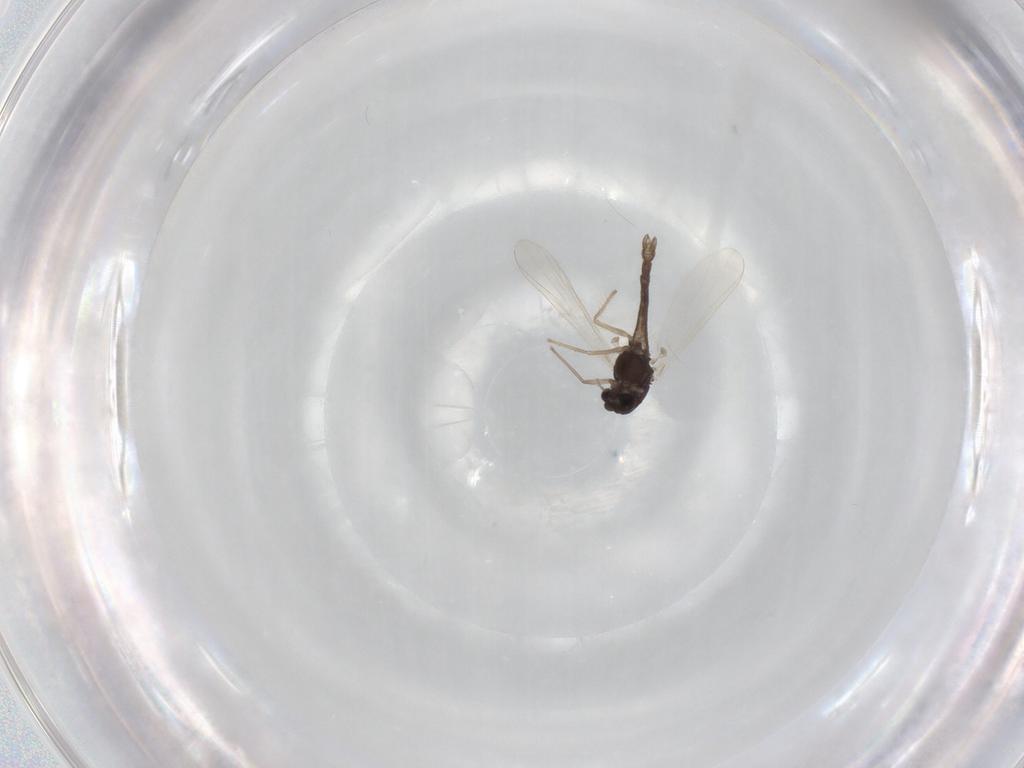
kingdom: Animalia
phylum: Arthropoda
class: Insecta
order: Diptera
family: Chironomidae
